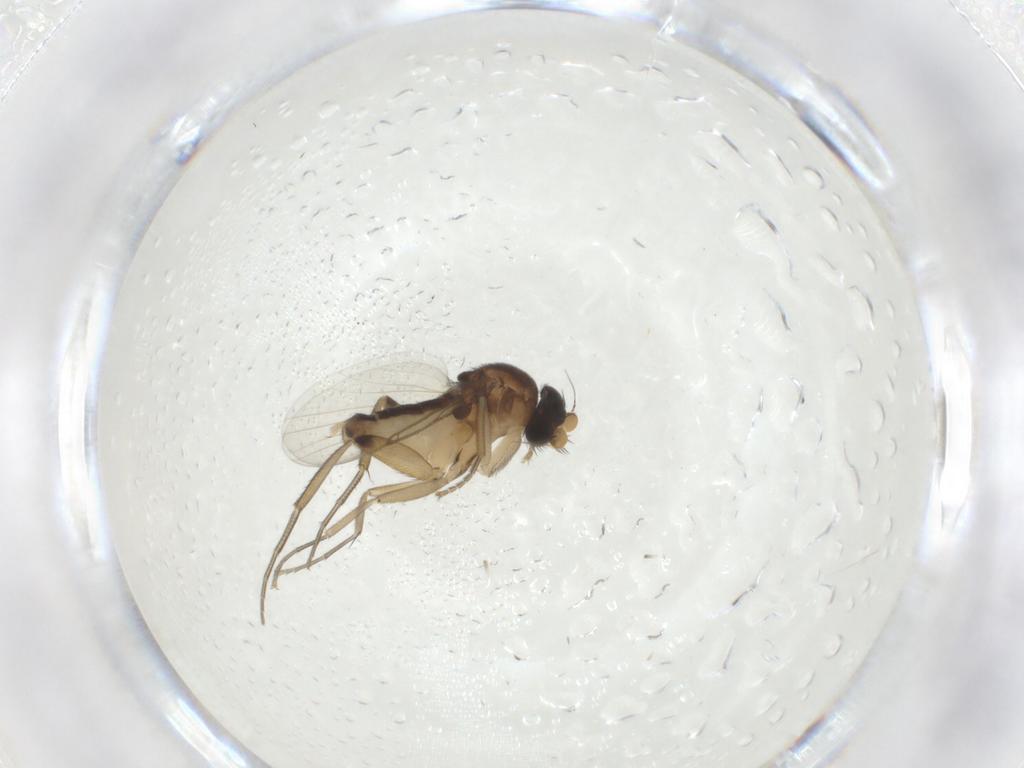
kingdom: Animalia
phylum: Arthropoda
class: Insecta
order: Diptera
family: Phoridae
